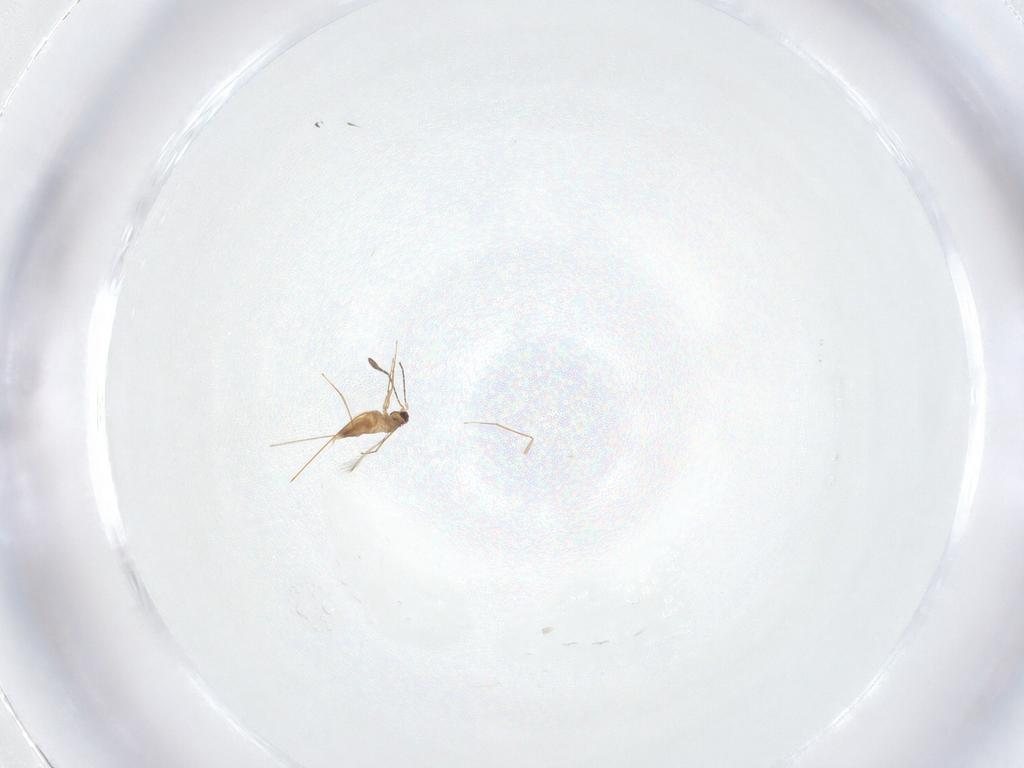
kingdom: Animalia
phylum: Arthropoda
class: Insecta
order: Hymenoptera
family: Mymaridae
